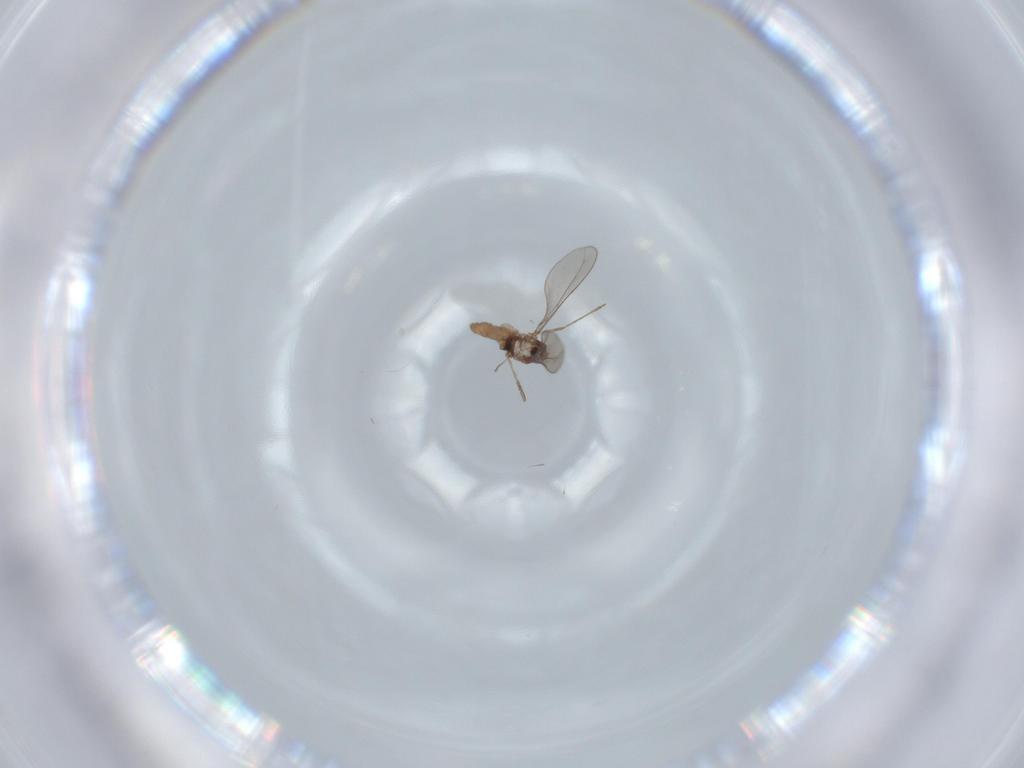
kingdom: Animalia
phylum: Arthropoda
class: Insecta
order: Diptera
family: Cecidomyiidae
